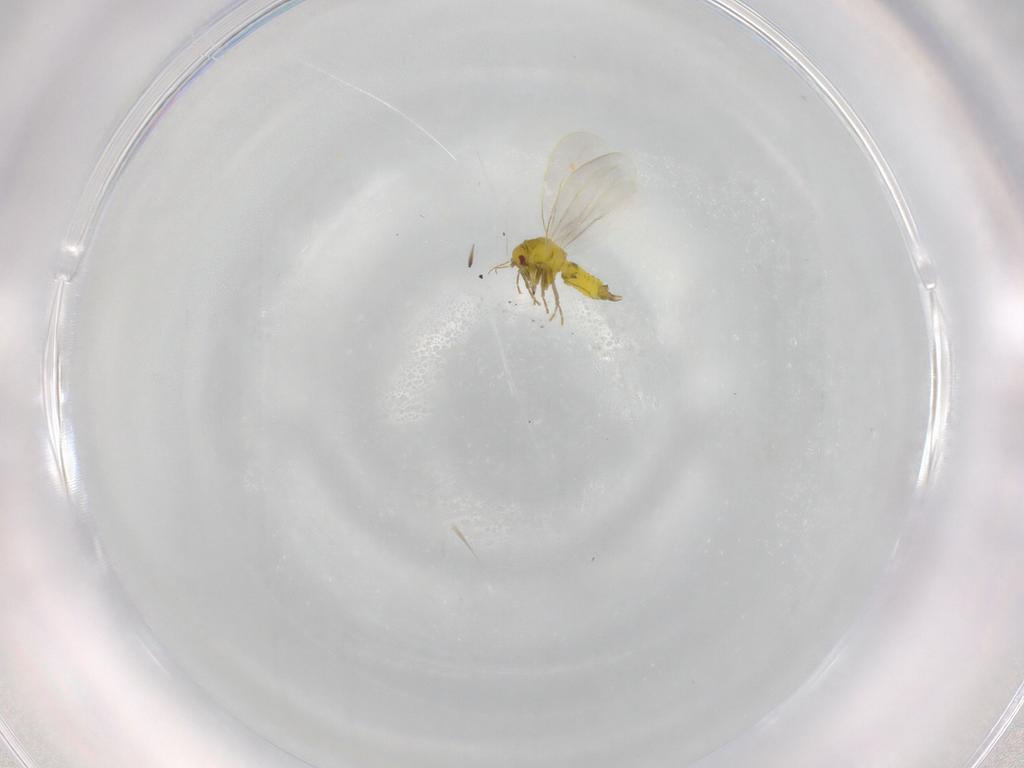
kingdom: Animalia
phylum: Arthropoda
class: Insecta
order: Hemiptera
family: Aleyrodidae
